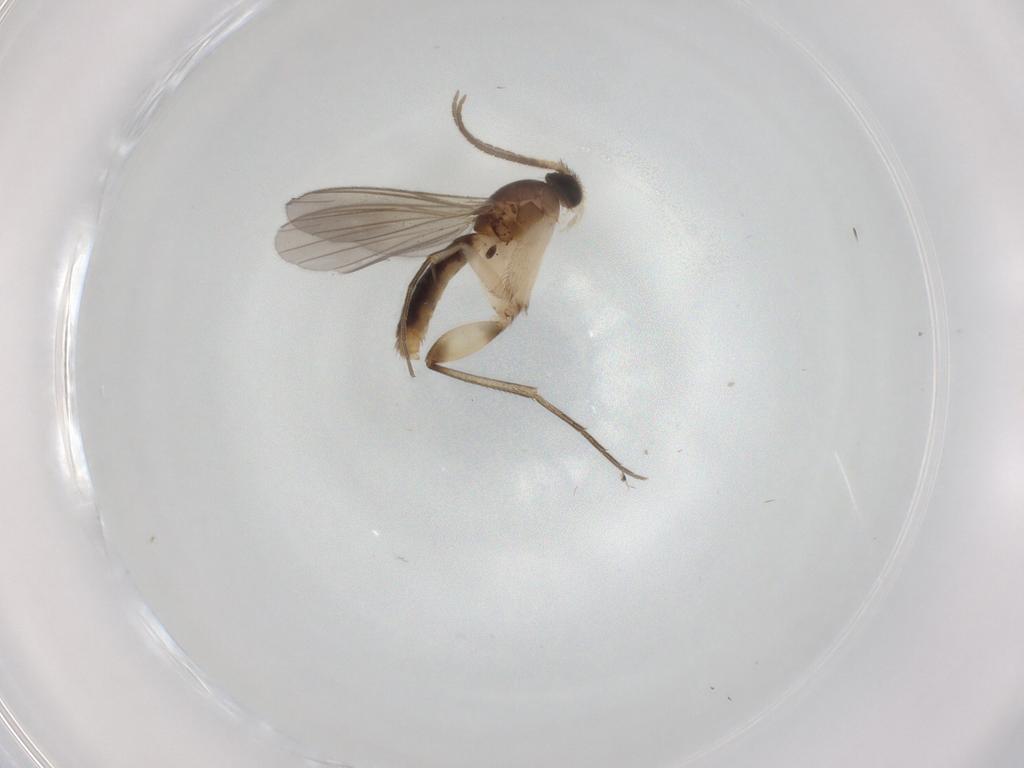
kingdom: Animalia
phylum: Arthropoda
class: Insecta
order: Diptera
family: Mycetophilidae
